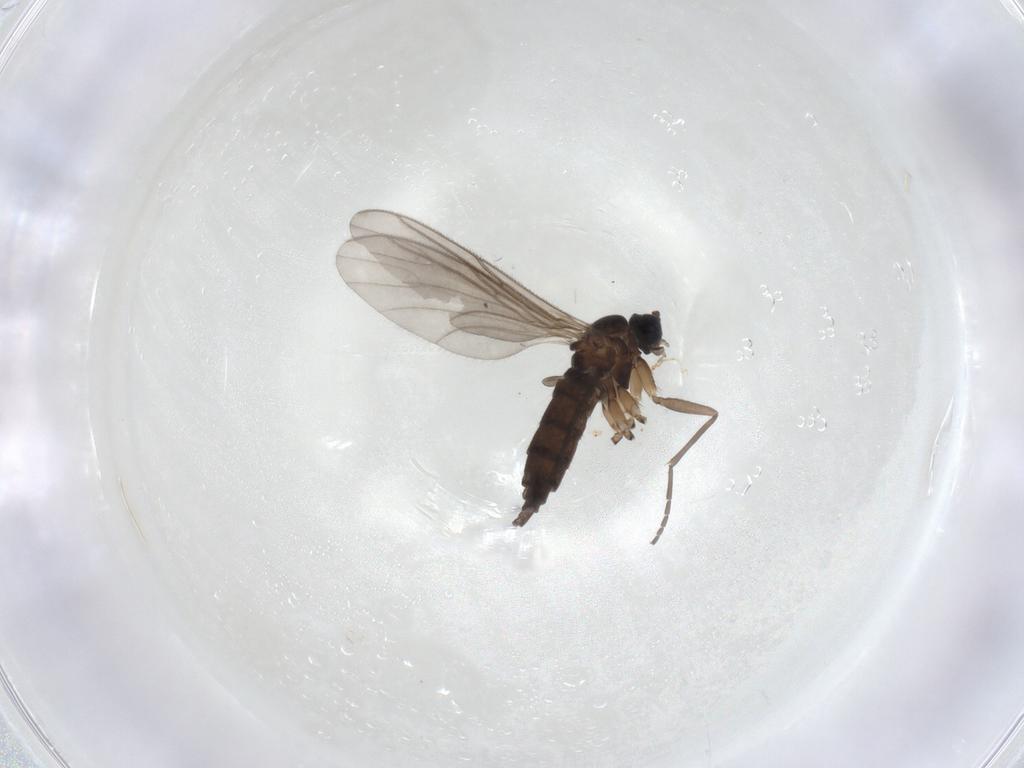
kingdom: Animalia
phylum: Arthropoda
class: Insecta
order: Diptera
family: Sciaridae
